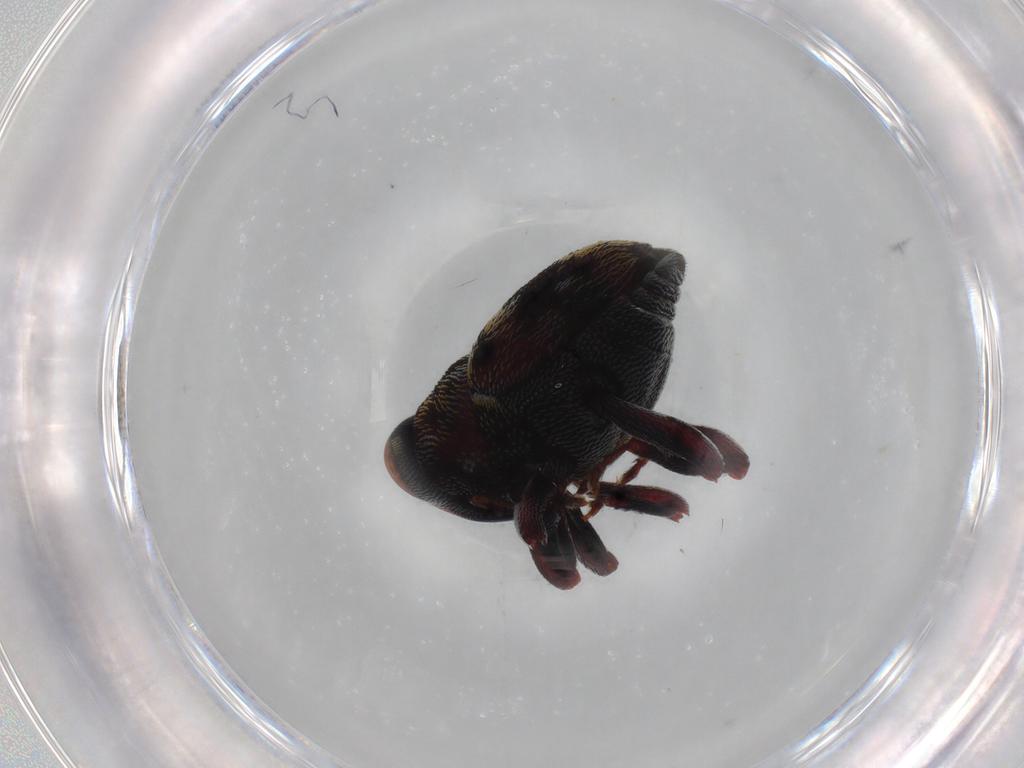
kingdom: Animalia
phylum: Arthropoda
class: Insecta
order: Coleoptera
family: Curculionidae
